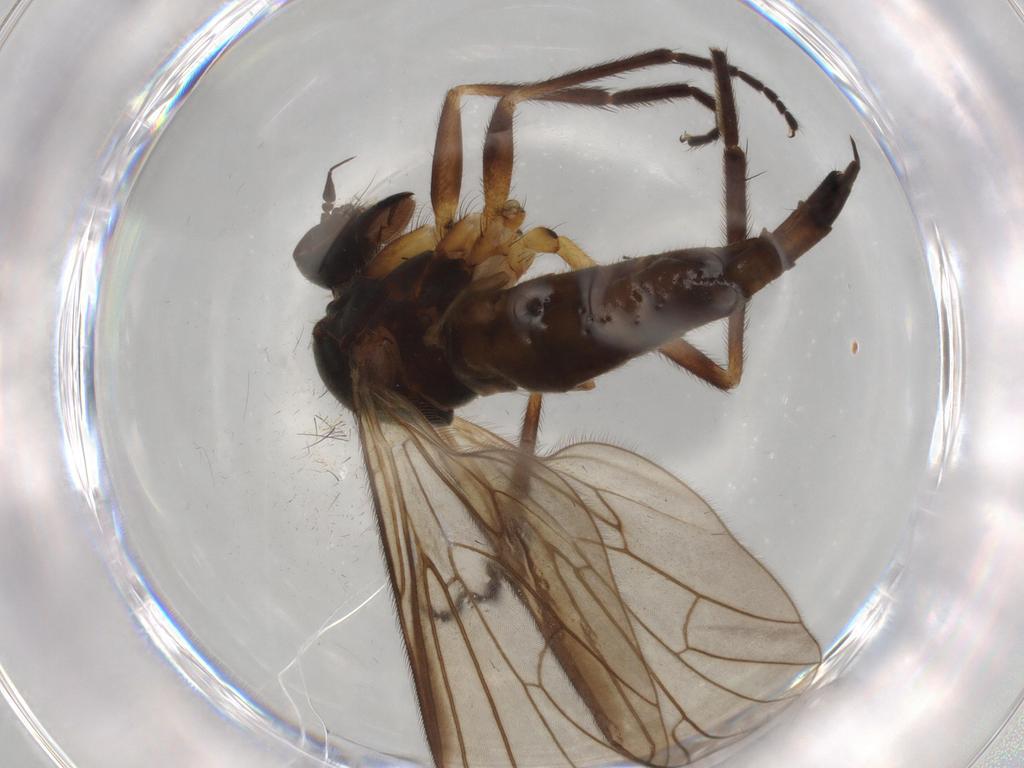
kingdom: Animalia
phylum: Arthropoda
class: Insecta
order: Diptera
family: Empididae
